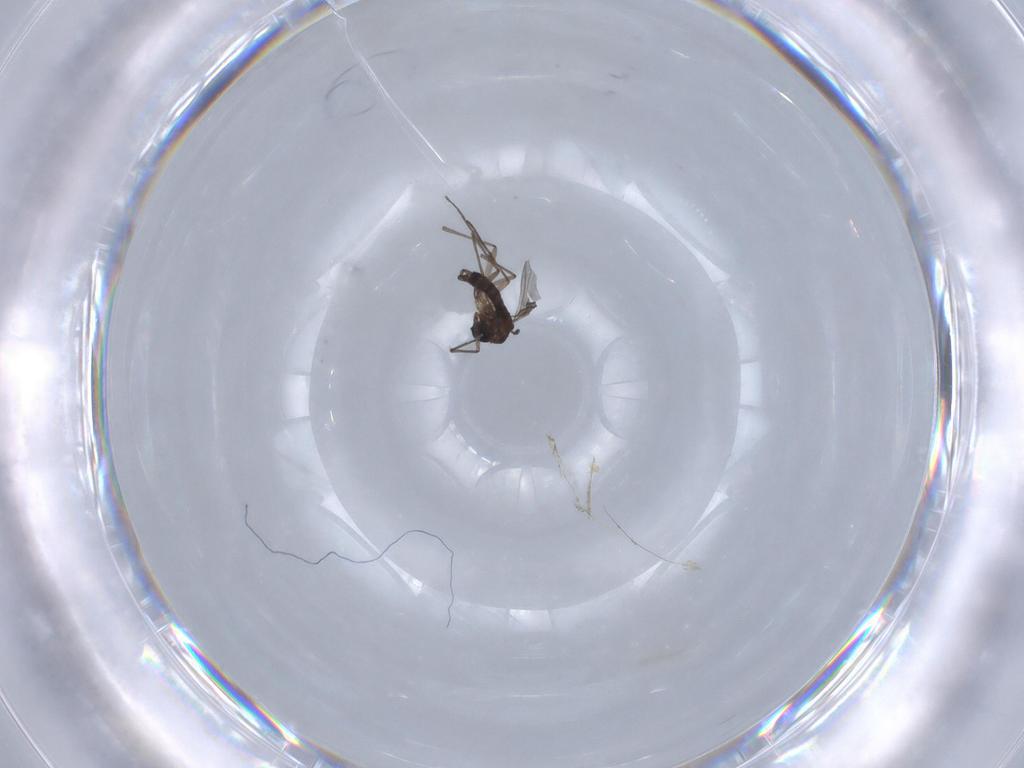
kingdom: Animalia
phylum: Arthropoda
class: Insecta
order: Diptera
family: Sciaridae
